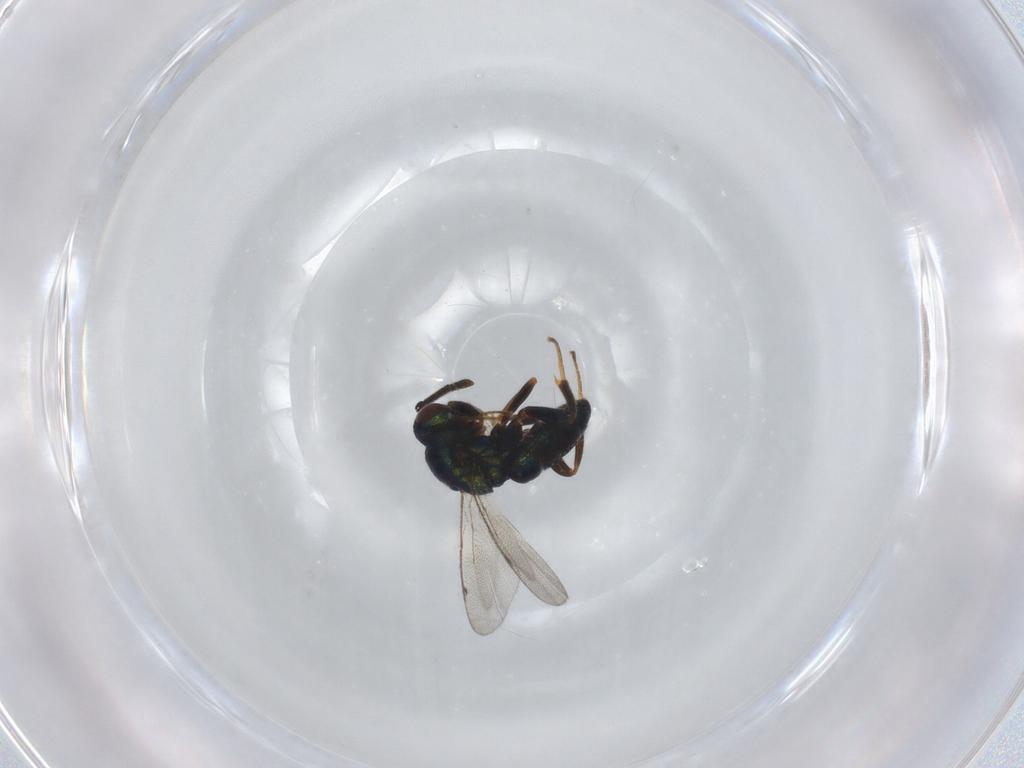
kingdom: Animalia
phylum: Arthropoda
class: Insecta
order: Hymenoptera
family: Ormyridae
